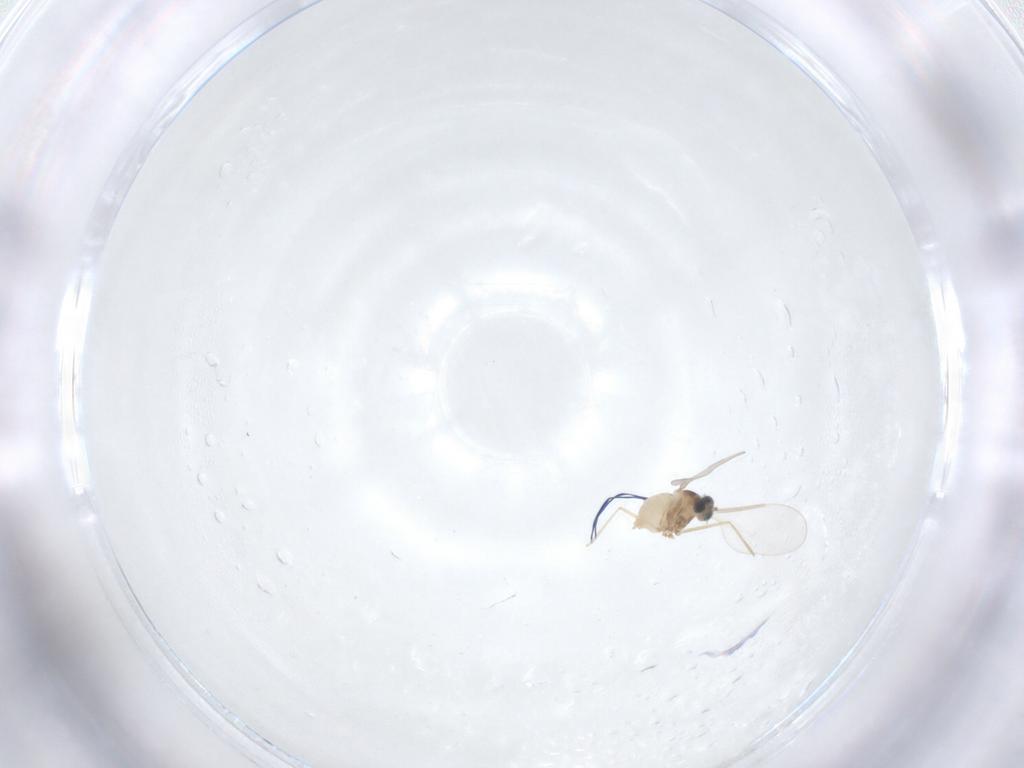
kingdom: Animalia
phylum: Arthropoda
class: Insecta
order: Diptera
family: Cecidomyiidae
